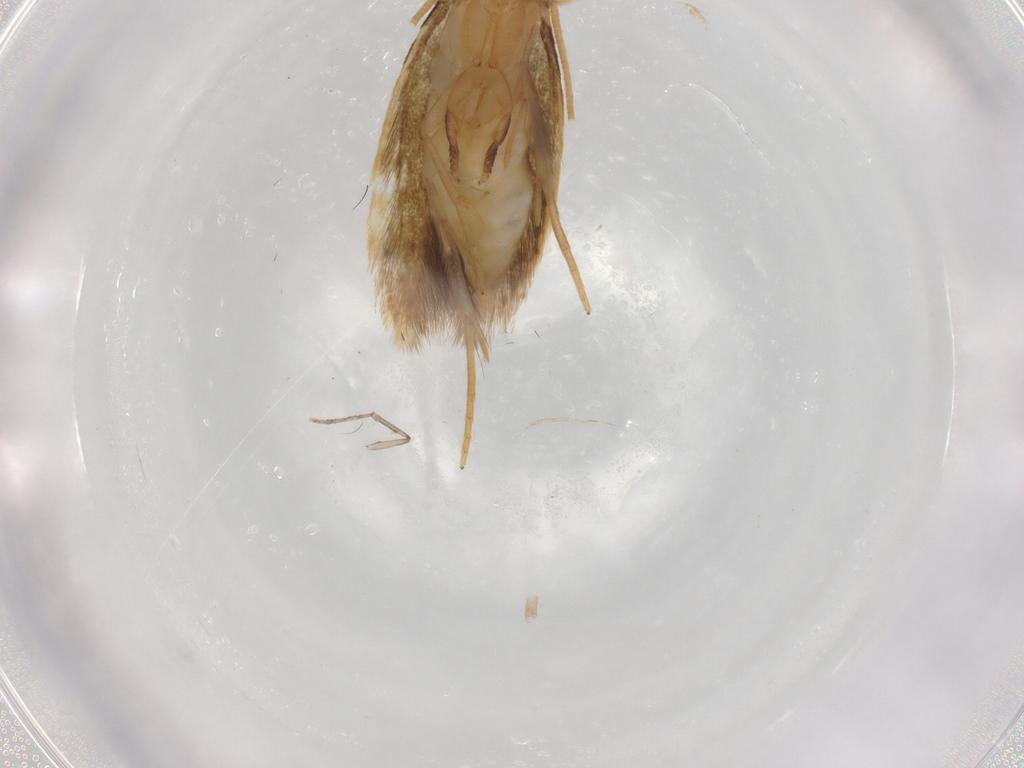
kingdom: Animalia
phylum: Arthropoda
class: Insecta
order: Lepidoptera
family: Tineidae
